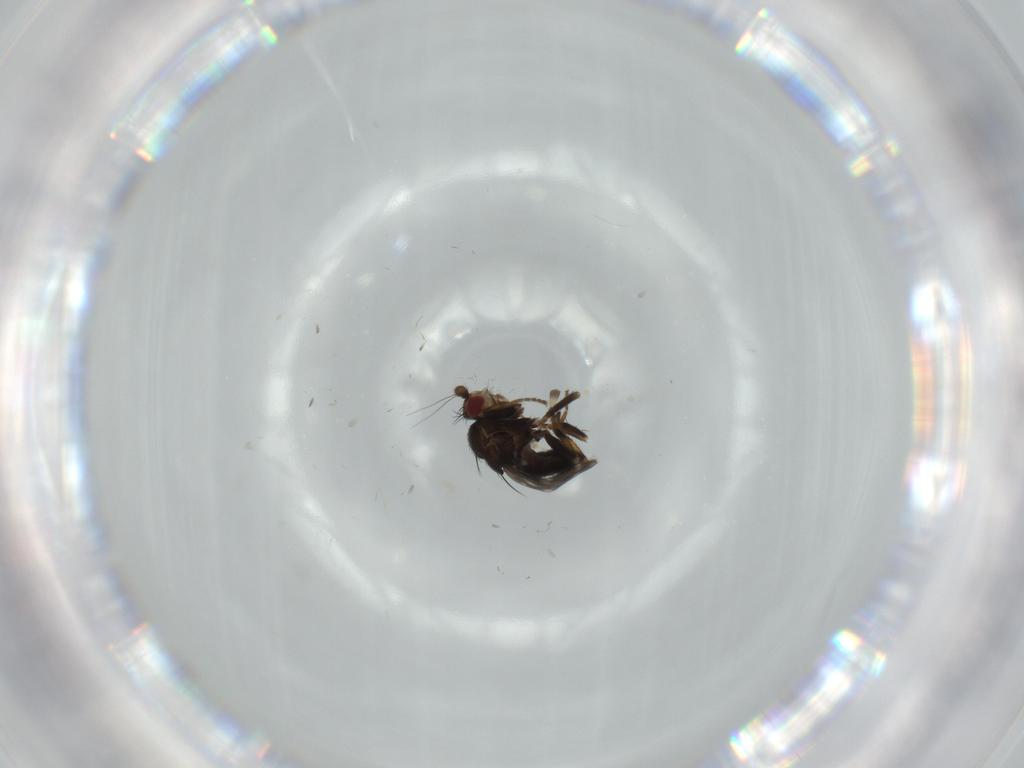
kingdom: Animalia
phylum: Arthropoda
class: Insecta
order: Diptera
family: Sphaeroceridae
